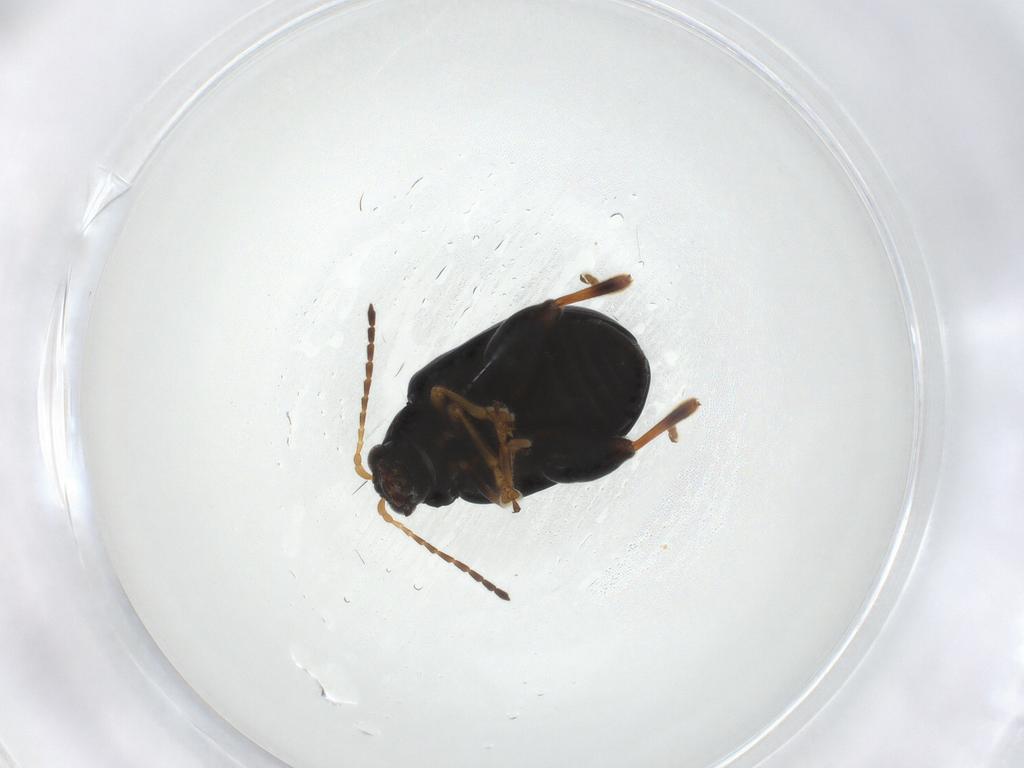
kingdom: Animalia
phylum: Arthropoda
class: Insecta
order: Coleoptera
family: Chrysomelidae
